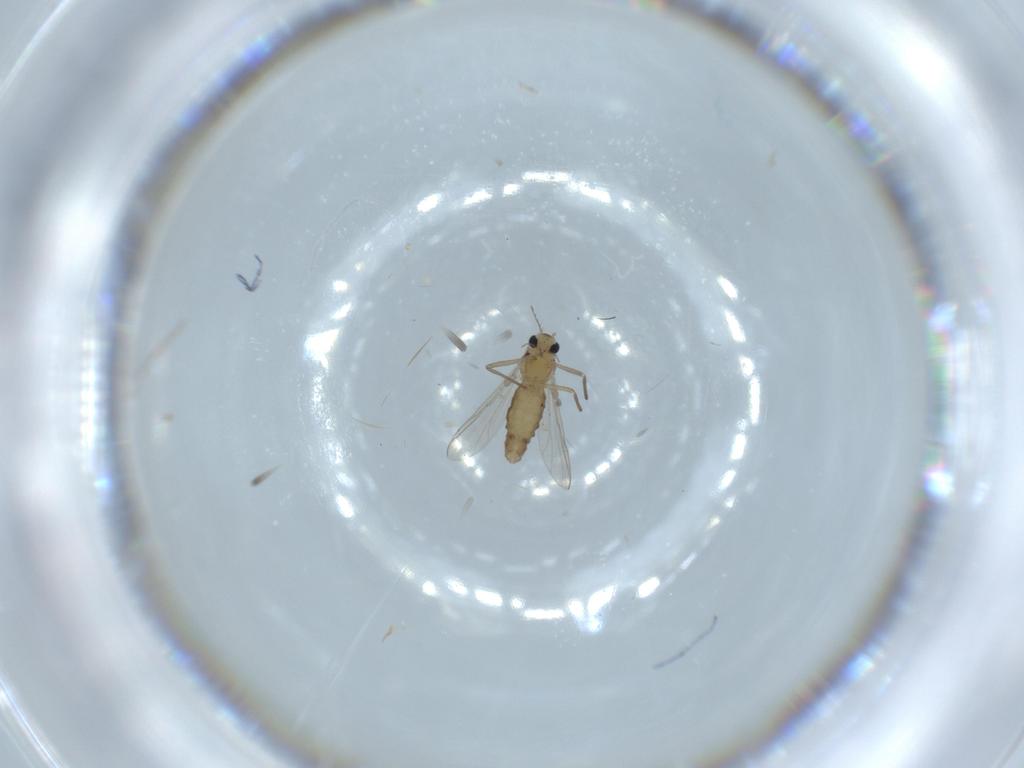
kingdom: Animalia
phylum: Arthropoda
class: Insecta
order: Diptera
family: Chironomidae
